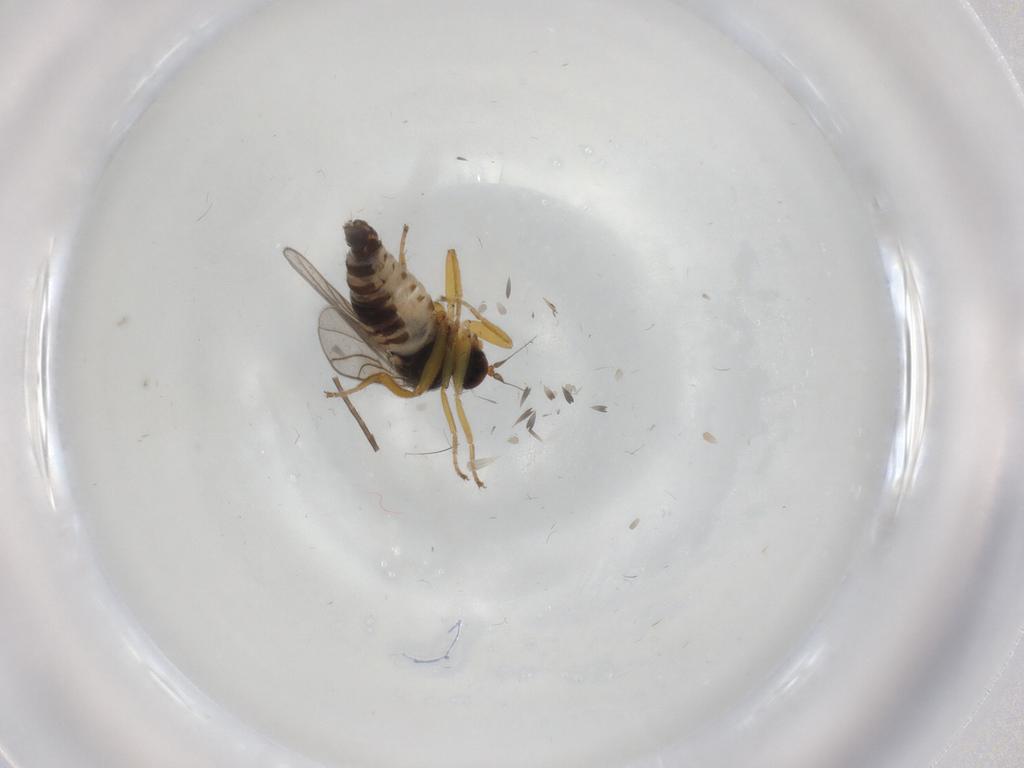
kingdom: Animalia
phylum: Arthropoda
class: Insecta
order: Diptera
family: Hybotidae
